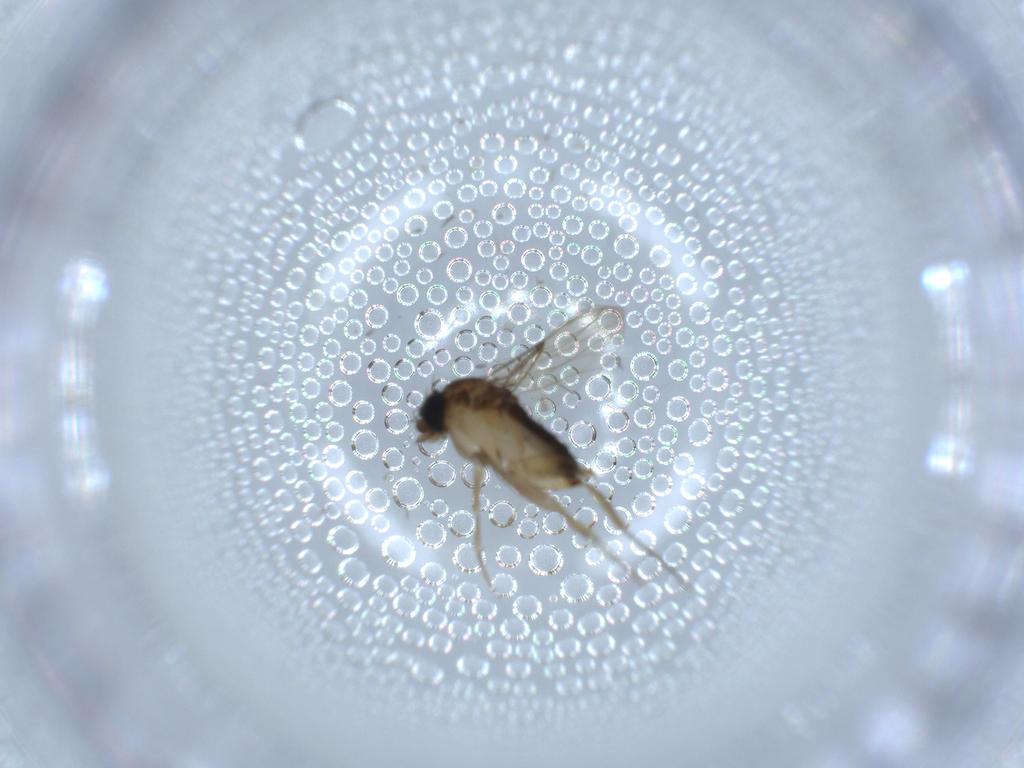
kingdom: Animalia
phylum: Arthropoda
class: Insecta
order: Diptera
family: Phoridae
